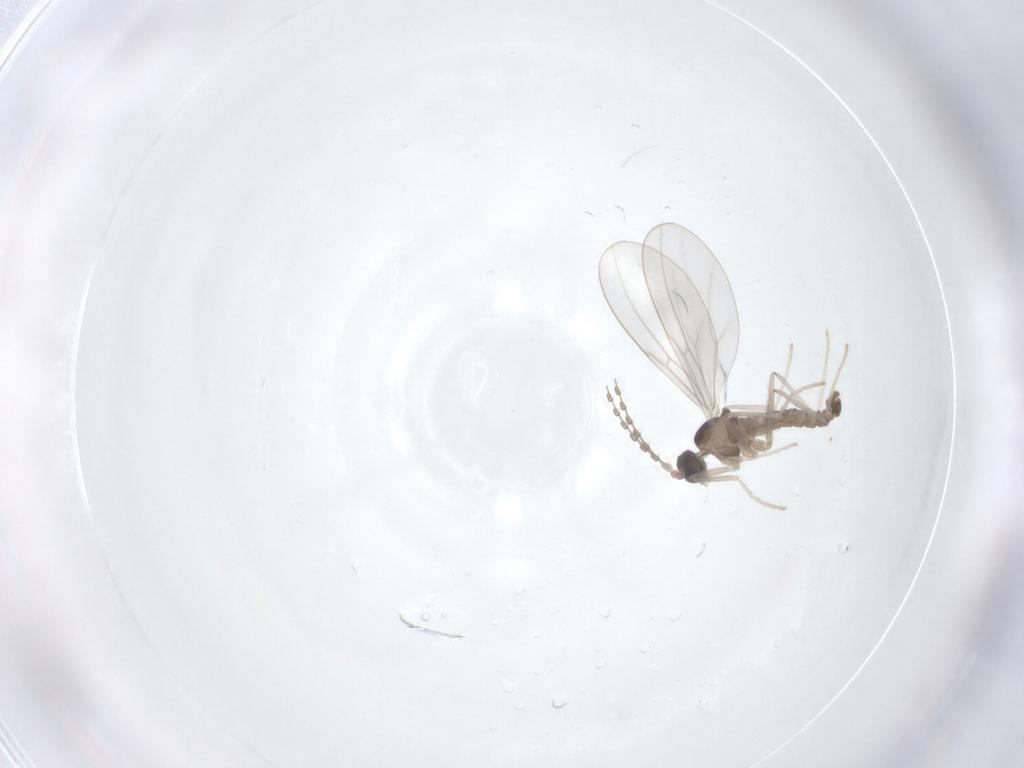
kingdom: Animalia
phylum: Arthropoda
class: Insecta
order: Diptera
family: Cecidomyiidae
